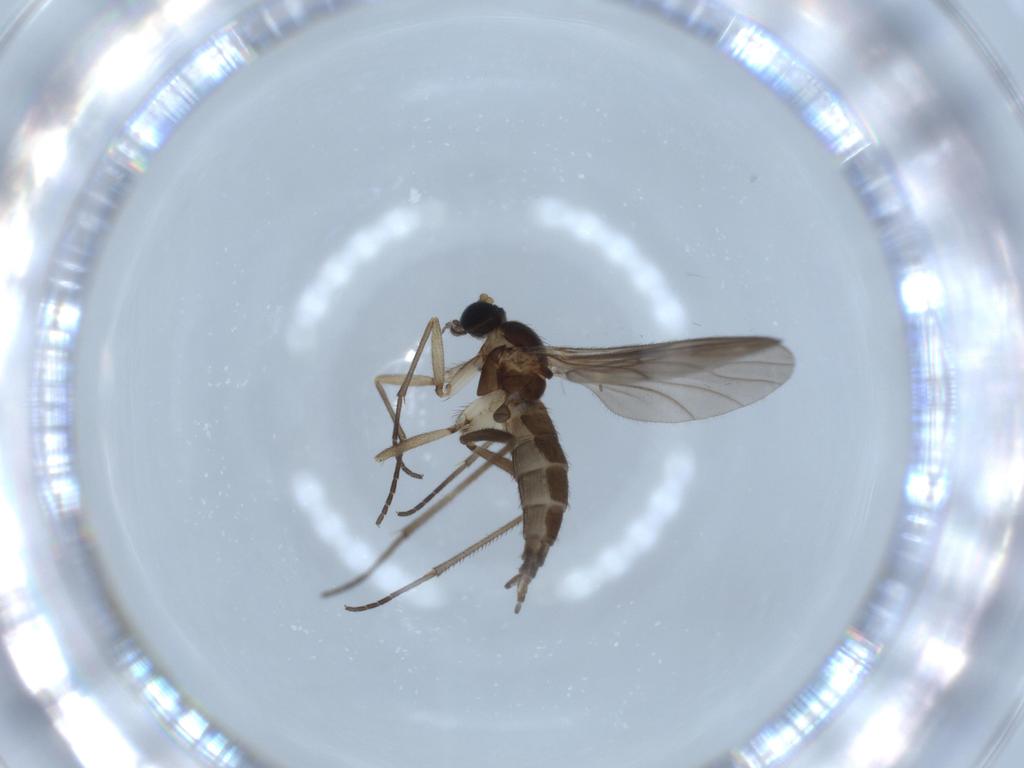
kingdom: Animalia
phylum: Arthropoda
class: Insecta
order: Diptera
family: Sciaridae
